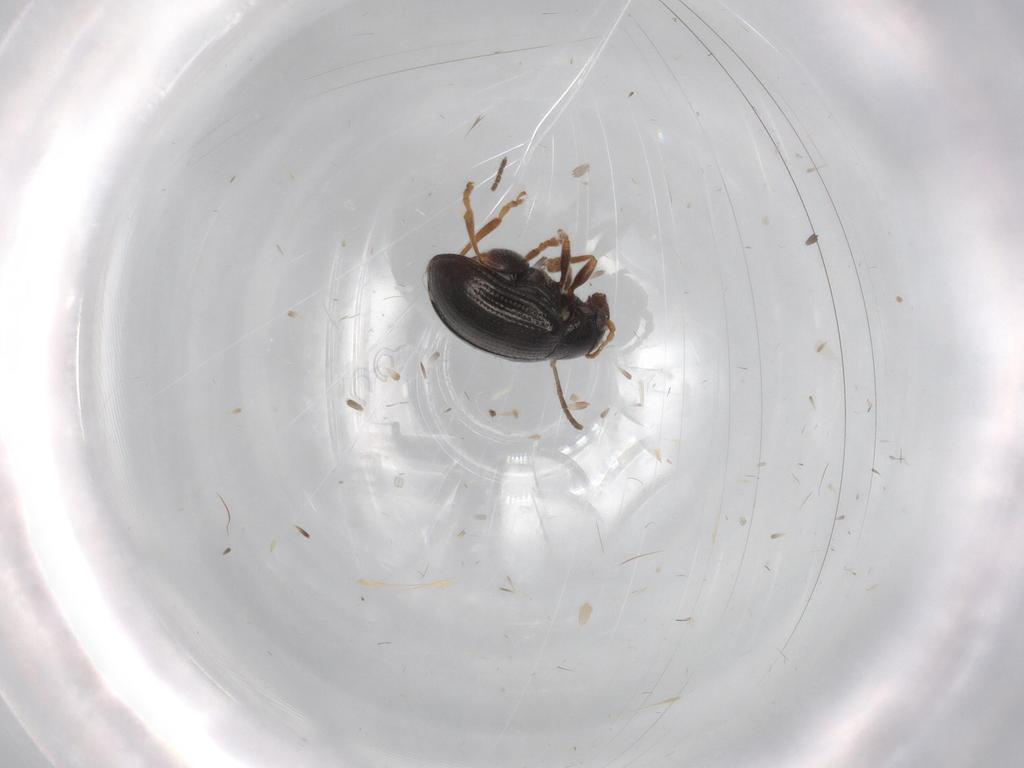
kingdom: Animalia
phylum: Arthropoda
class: Insecta
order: Coleoptera
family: Chrysomelidae
